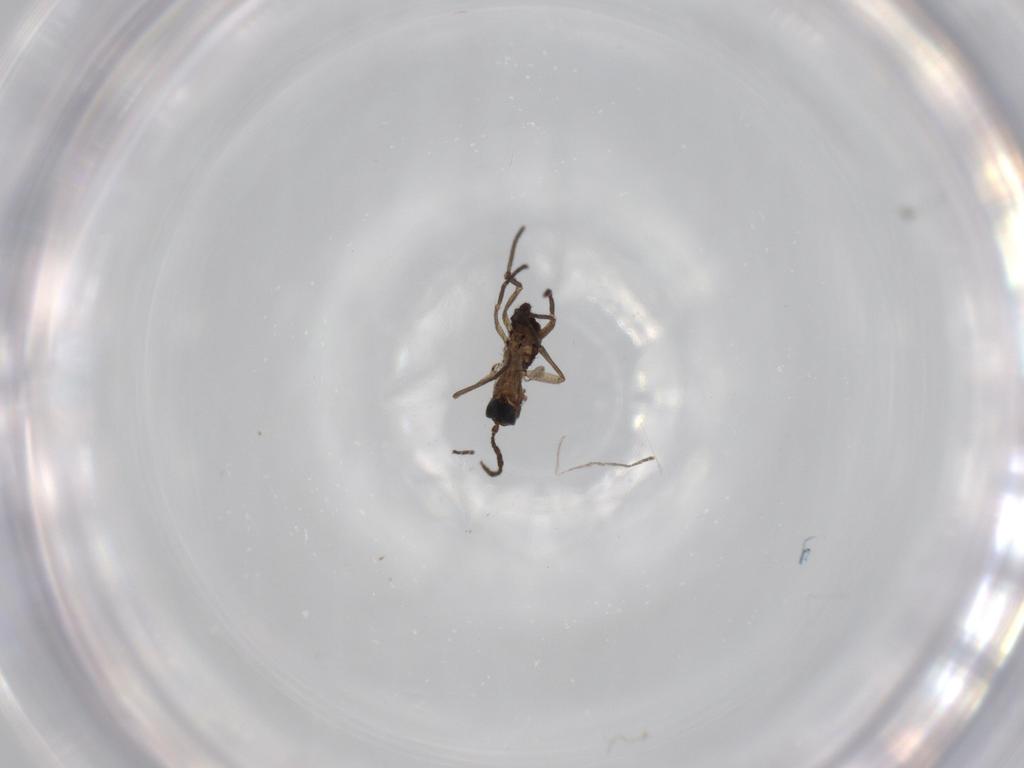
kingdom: Animalia
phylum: Arthropoda
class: Insecta
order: Diptera
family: Sciaridae
